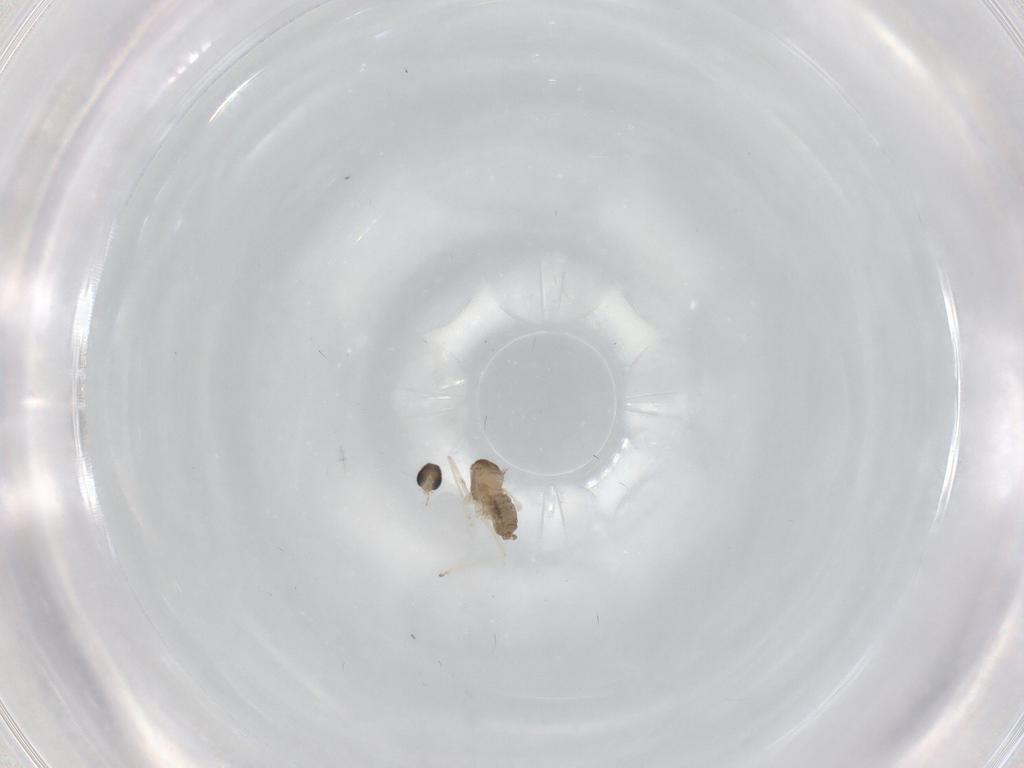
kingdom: Animalia
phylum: Arthropoda
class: Insecta
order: Diptera
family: Cecidomyiidae
